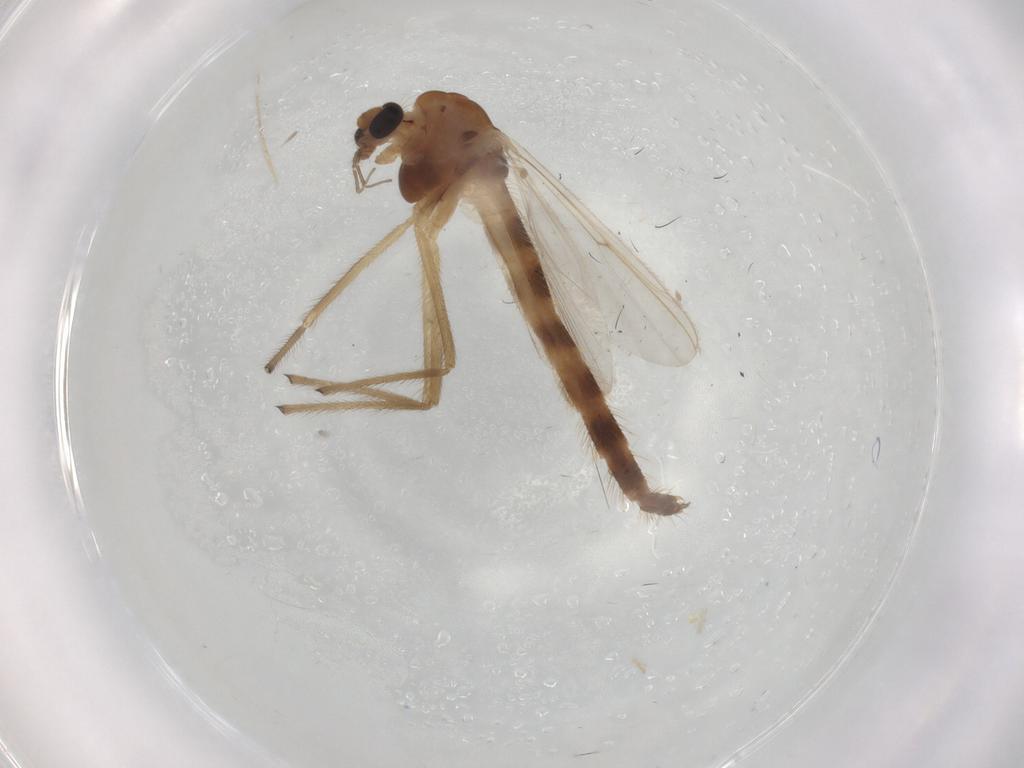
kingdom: Animalia
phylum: Arthropoda
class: Insecta
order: Diptera
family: Chironomidae
